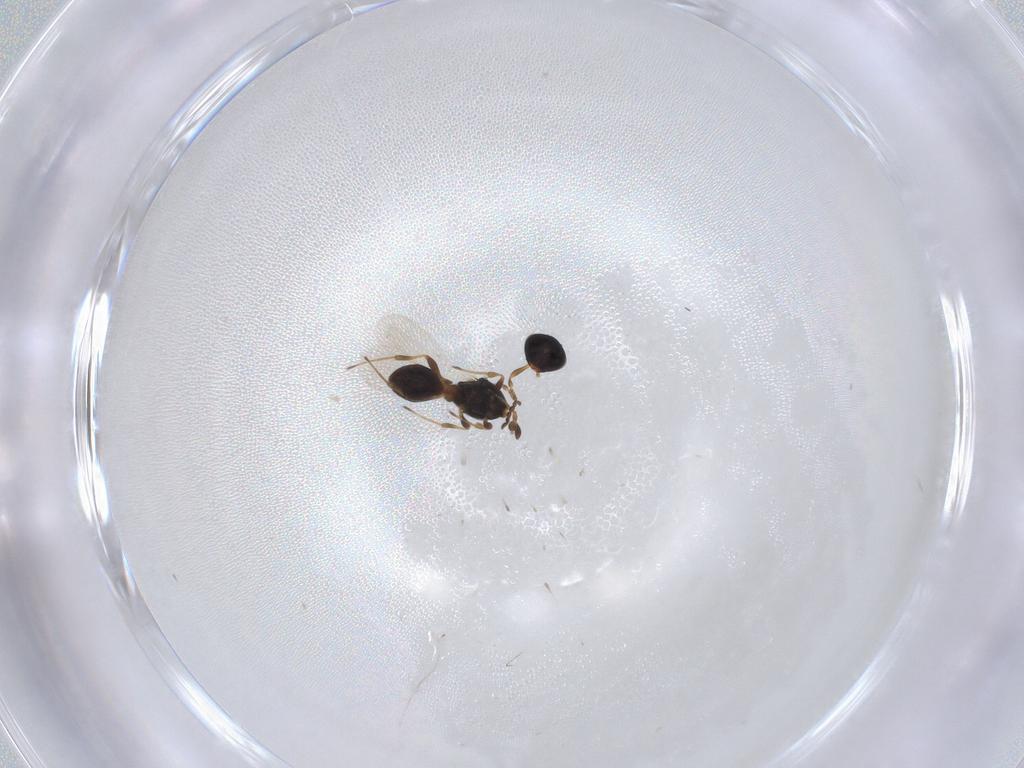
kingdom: Animalia
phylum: Arthropoda
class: Insecta
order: Hymenoptera
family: Platygastridae
